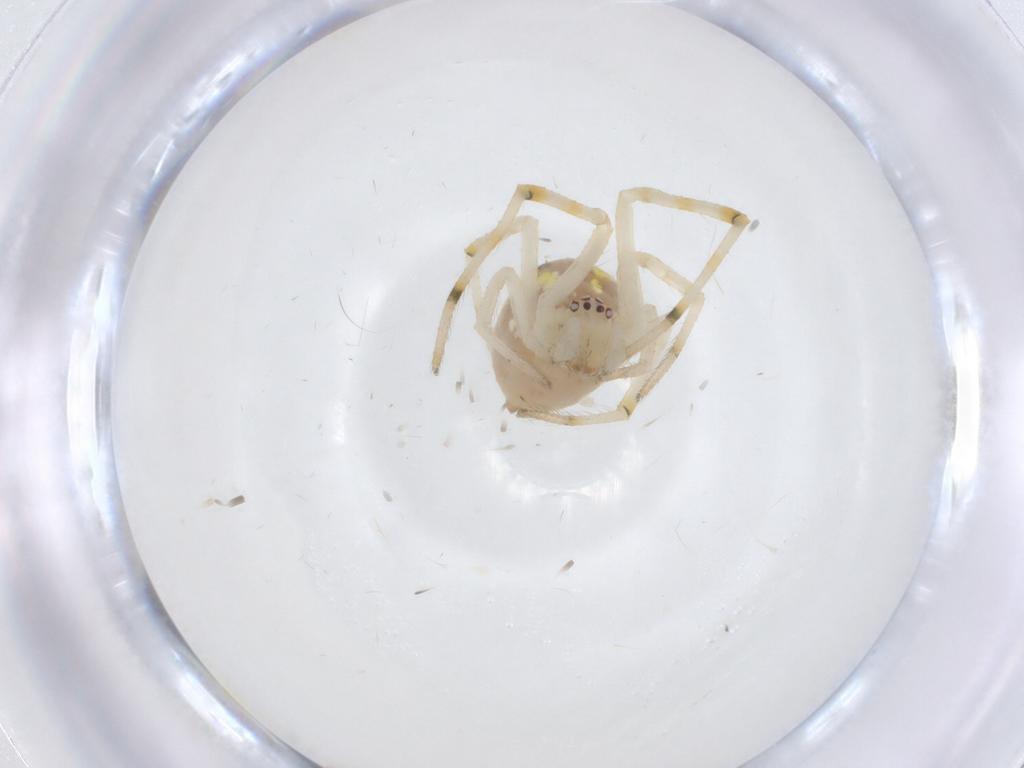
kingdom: Animalia
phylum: Arthropoda
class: Arachnida
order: Araneae
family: Theridiidae
